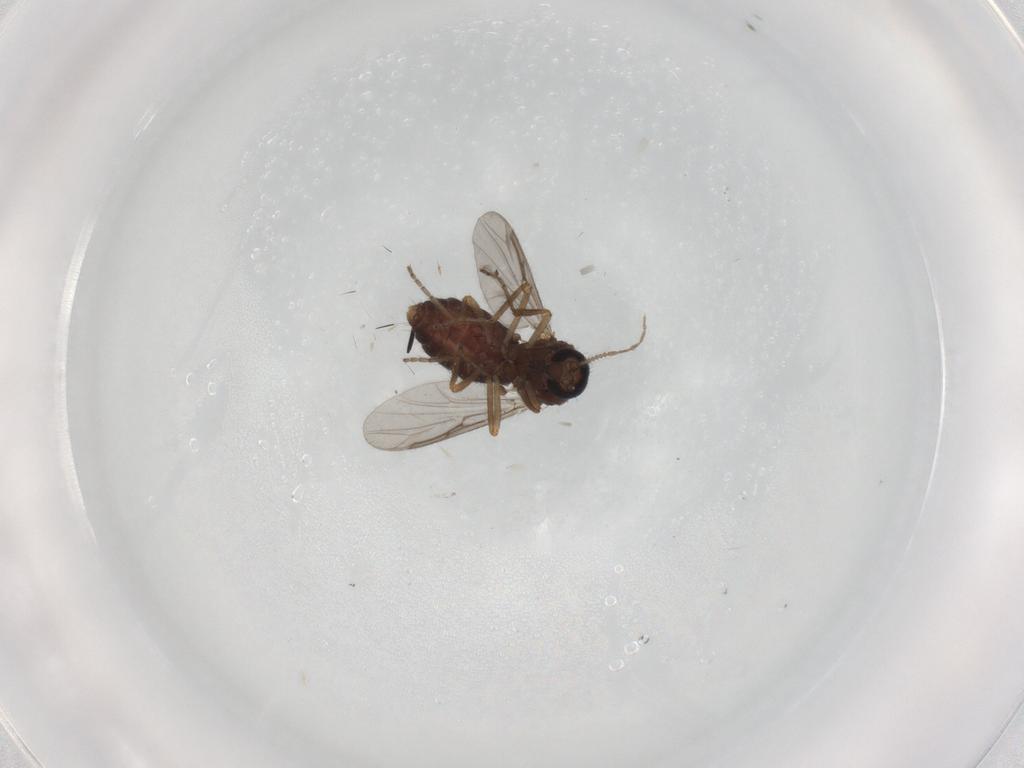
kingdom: Animalia
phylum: Arthropoda
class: Insecta
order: Diptera
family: Ceratopogonidae
